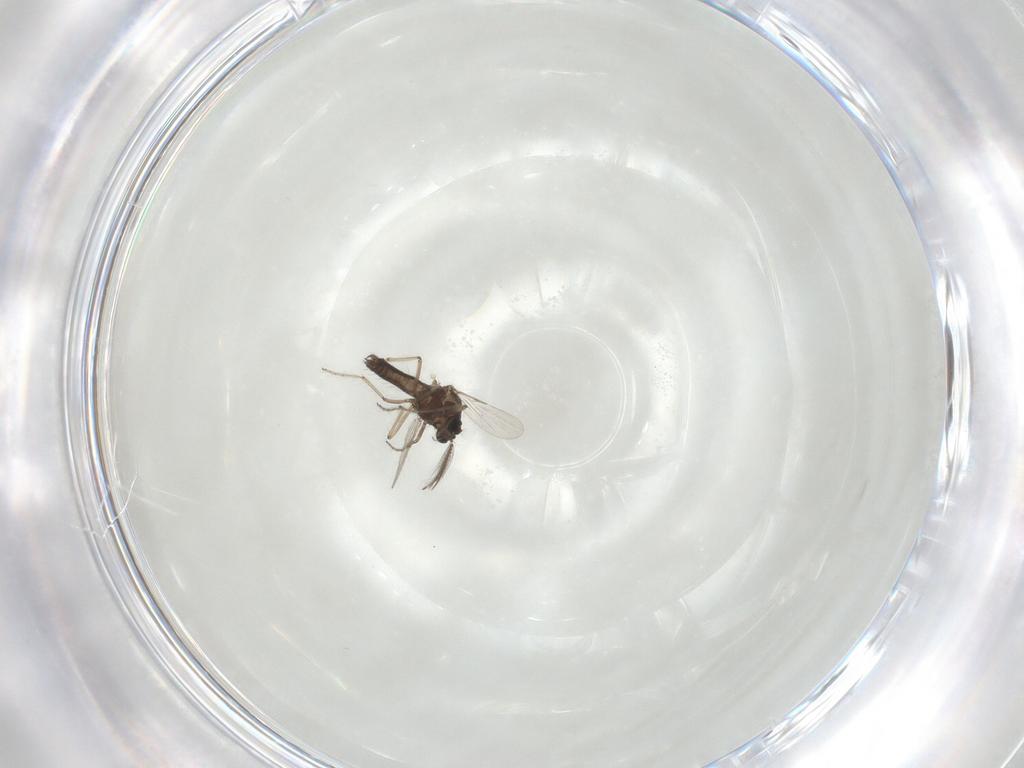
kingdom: Animalia
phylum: Arthropoda
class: Insecta
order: Diptera
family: Ceratopogonidae
